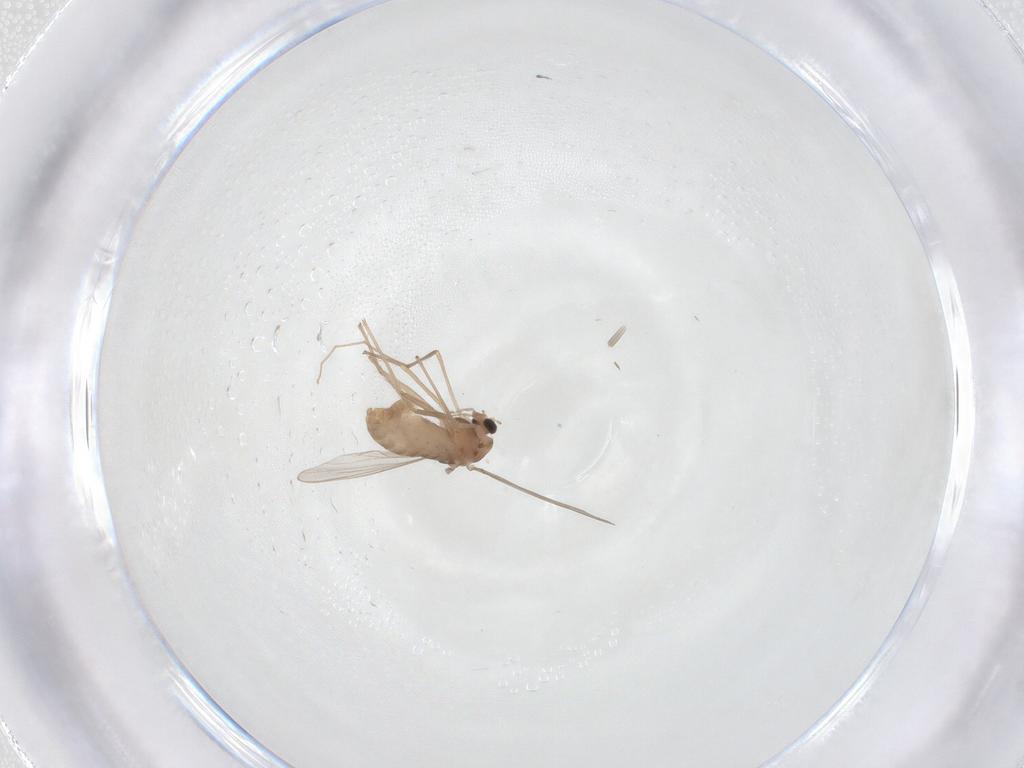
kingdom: Animalia
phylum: Arthropoda
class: Insecta
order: Diptera
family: Chironomidae
